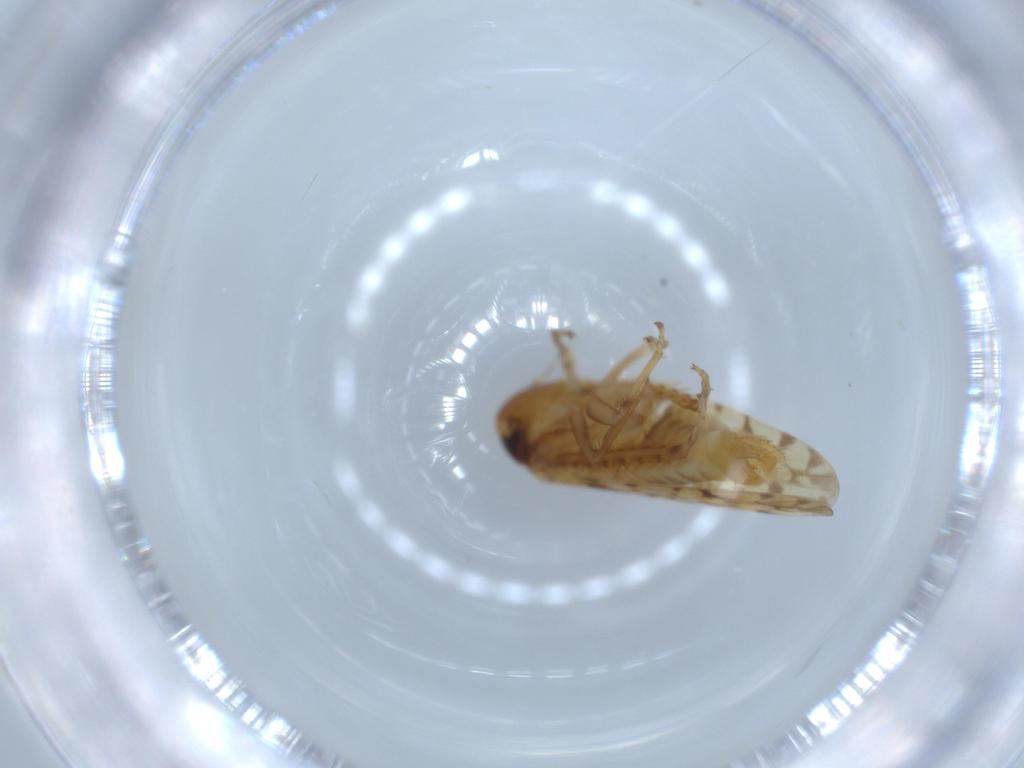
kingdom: Animalia
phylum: Arthropoda
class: Insecta
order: Hemiptera
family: Cicadellidae
